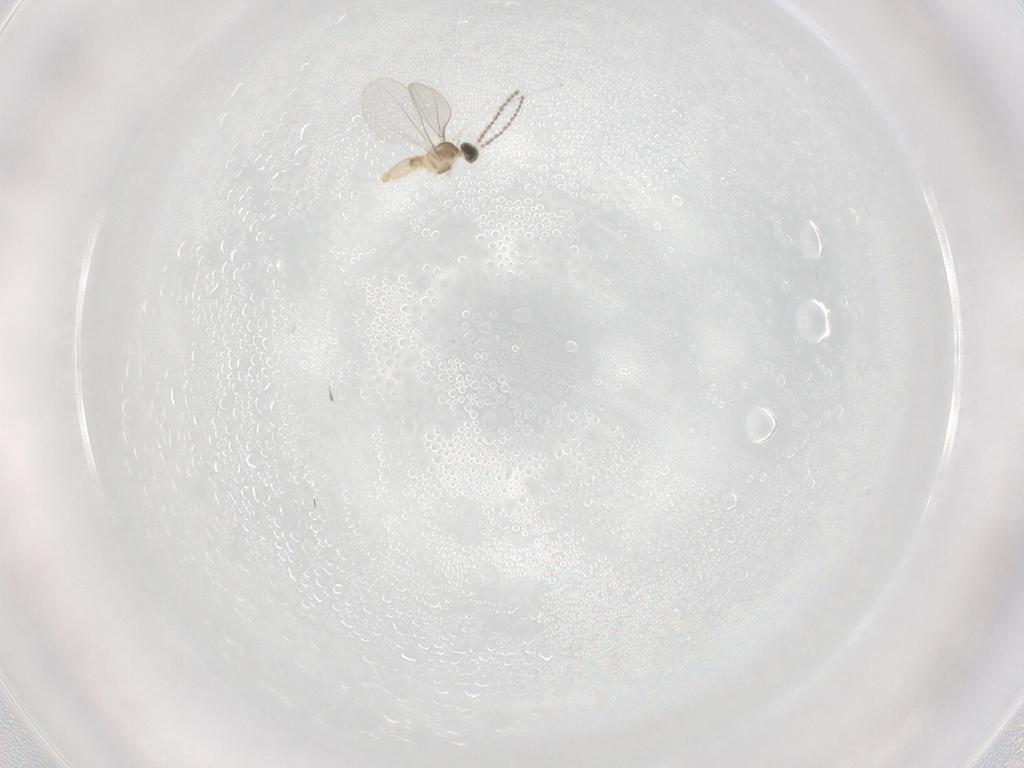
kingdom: Animalia
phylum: Arthropoda
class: Insecta
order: Diptera
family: Cecidomyiidae
